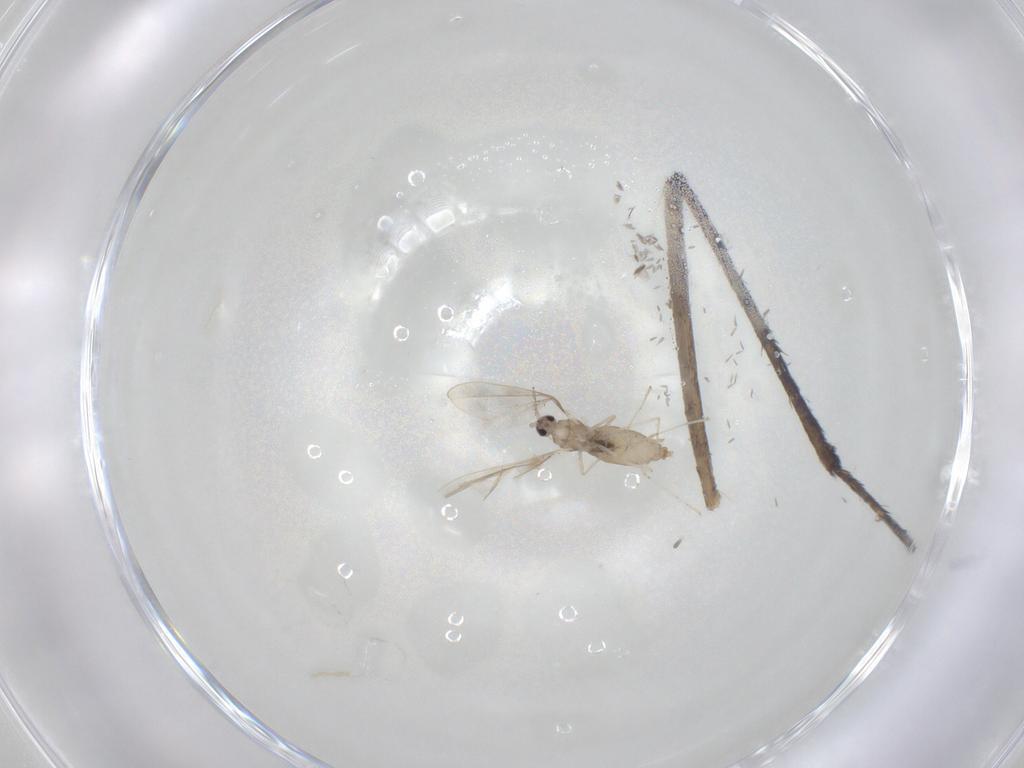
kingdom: Animalia
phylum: Arthropoda
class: Insecta
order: Diptera
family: Cecidomyiidae
